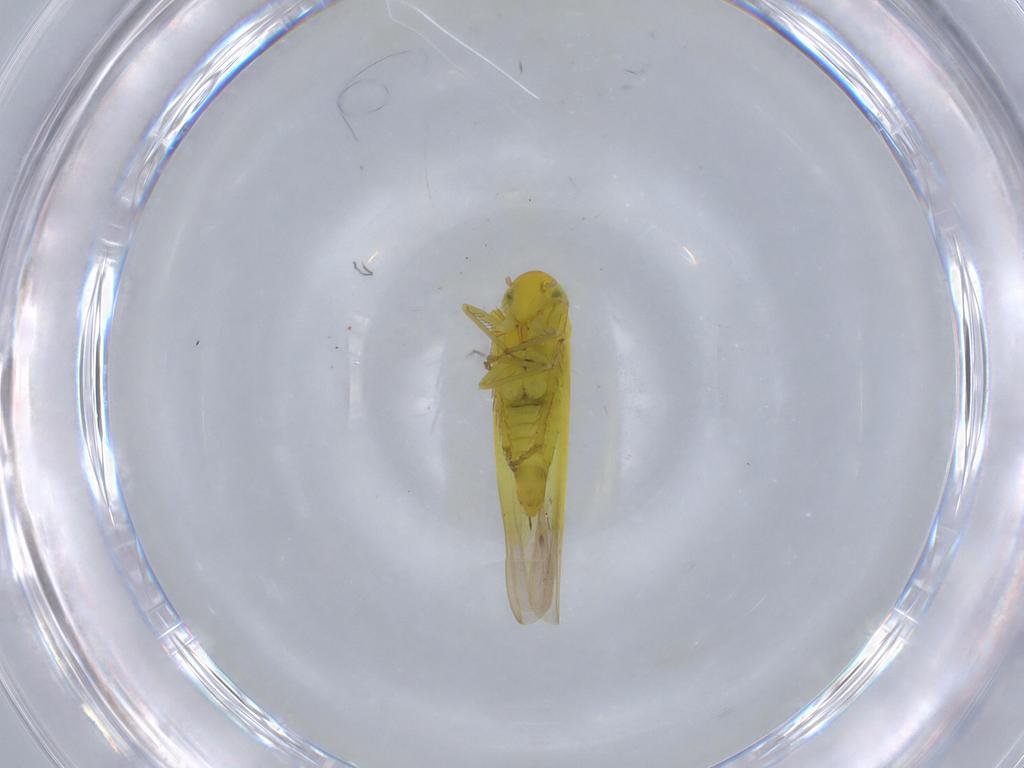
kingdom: Animalia
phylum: Arthropoda
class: Insecta
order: Hemiptera
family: Cicadellidae
